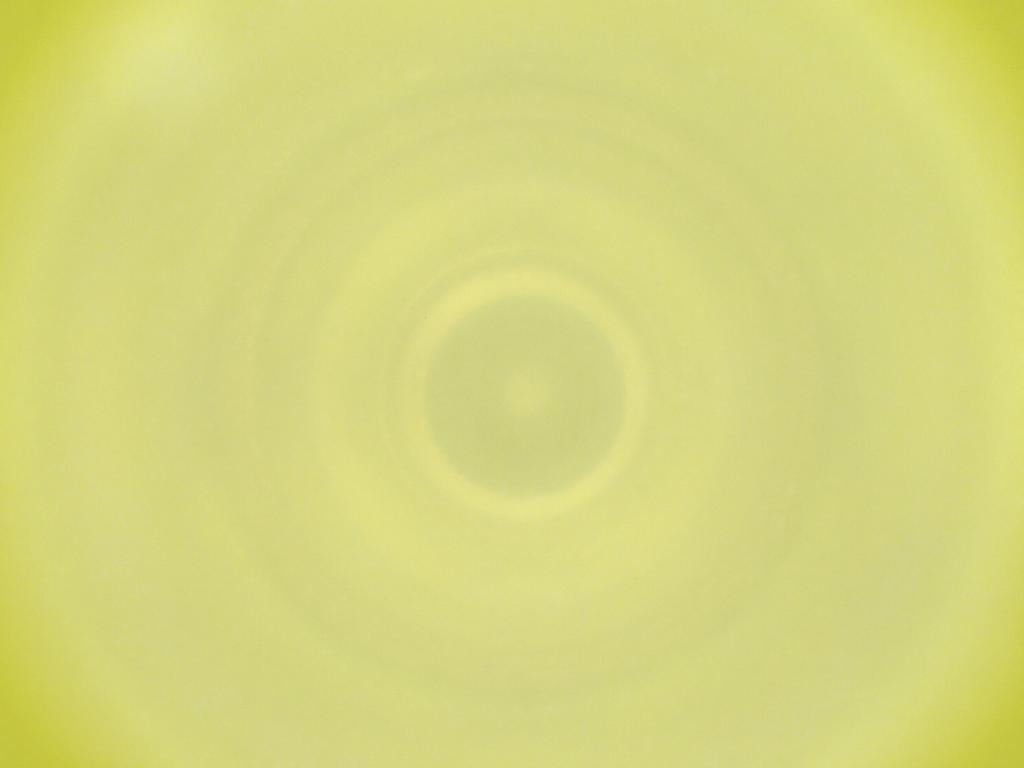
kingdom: Animalia
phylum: Arthropoda
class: Insecta
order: Diptera
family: Cecidomyiidae
